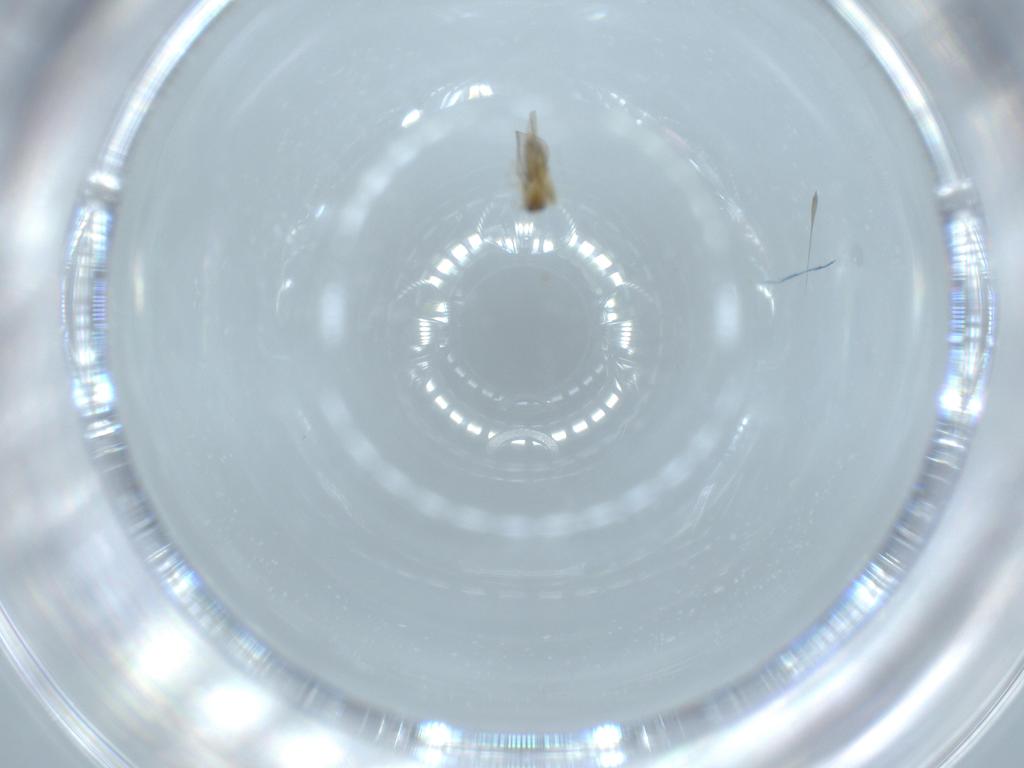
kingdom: Animalia
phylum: Arthropoda
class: Insecta
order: Diptera
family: Cecidomyiidae
